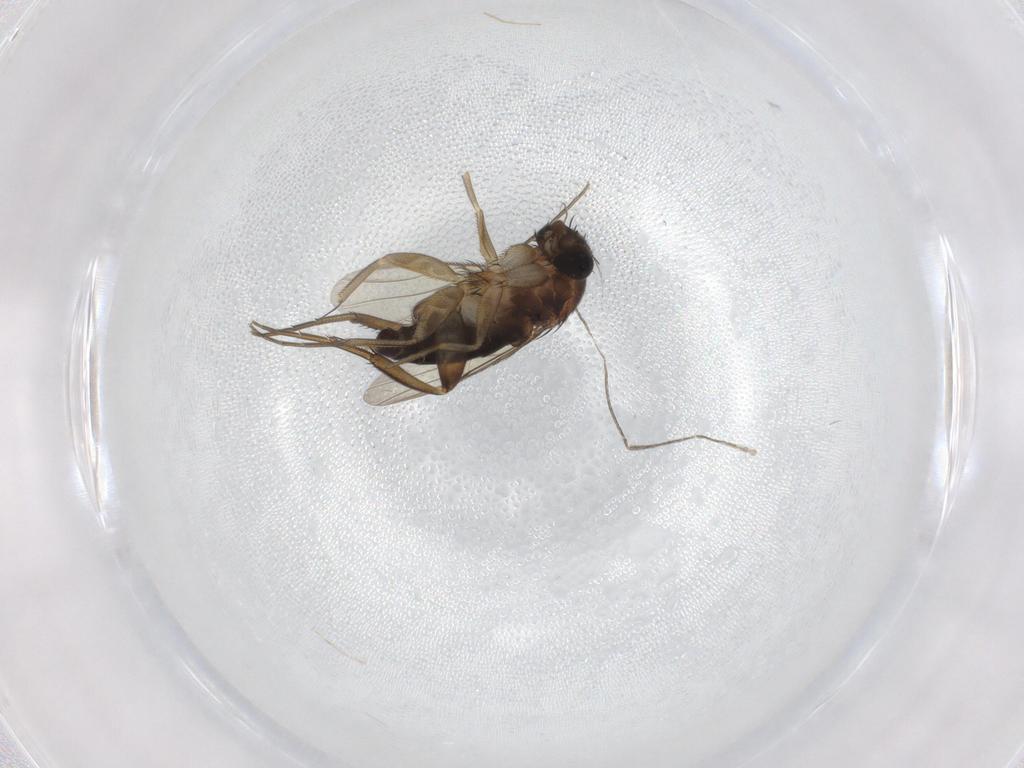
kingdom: Animalia
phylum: Arthropoda
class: Insecta
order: Diptera
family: Phoridae
